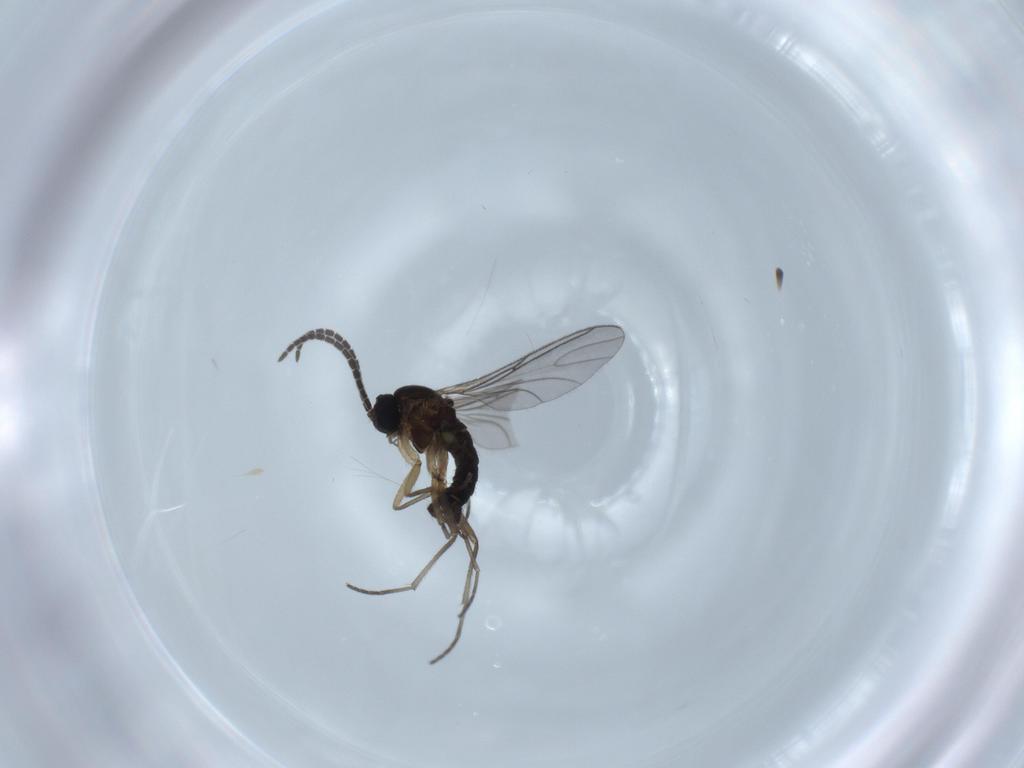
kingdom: Animalia
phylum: Arthropoda
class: Insecta
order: Diptera
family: Sciaridae
